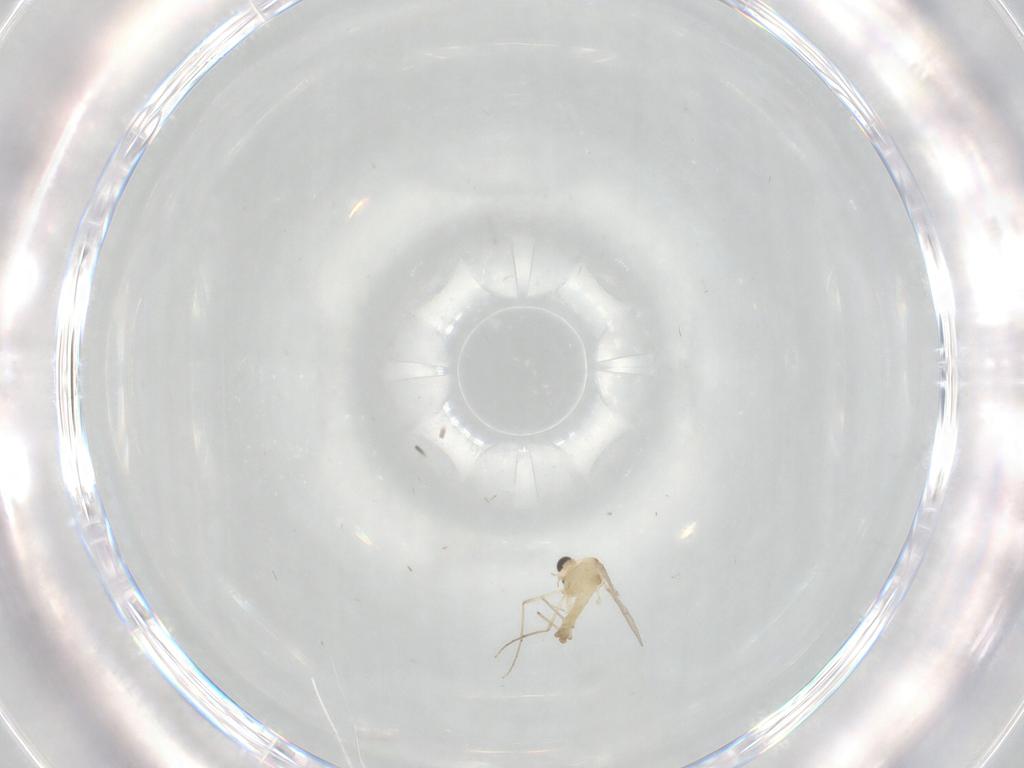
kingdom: Animalia
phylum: Arthropoda
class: Insecta
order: Diptera
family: Chironomidae
